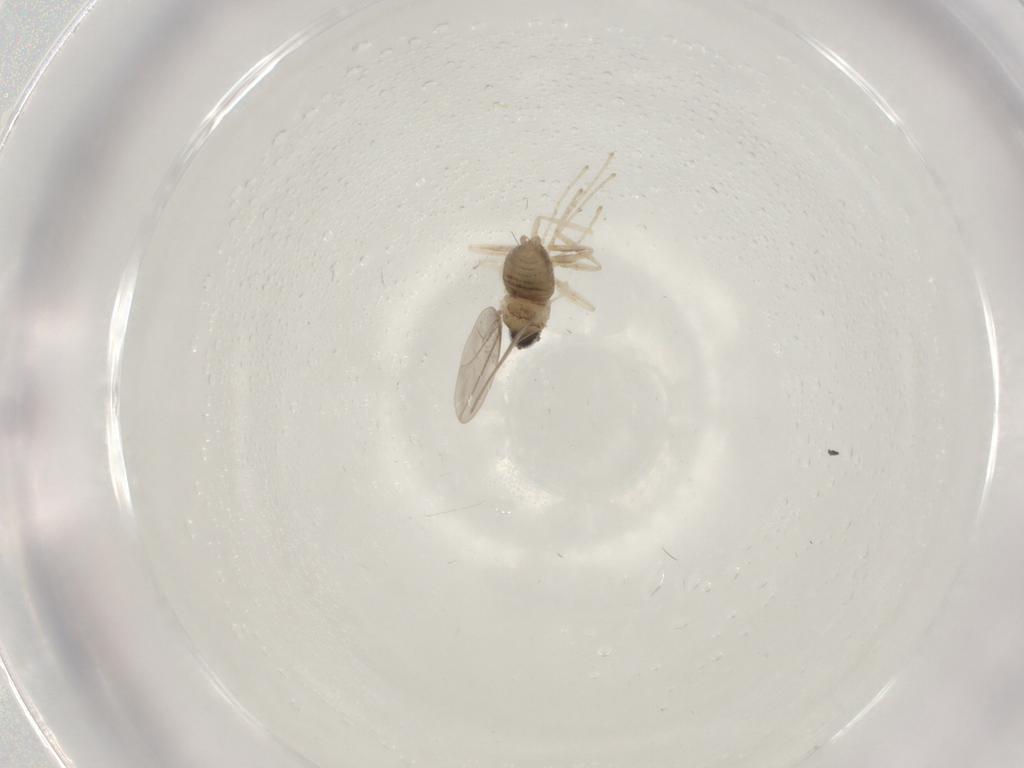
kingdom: Animalia
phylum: Arthropoda
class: Insecta
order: Diptera
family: Cecidomyiidae
